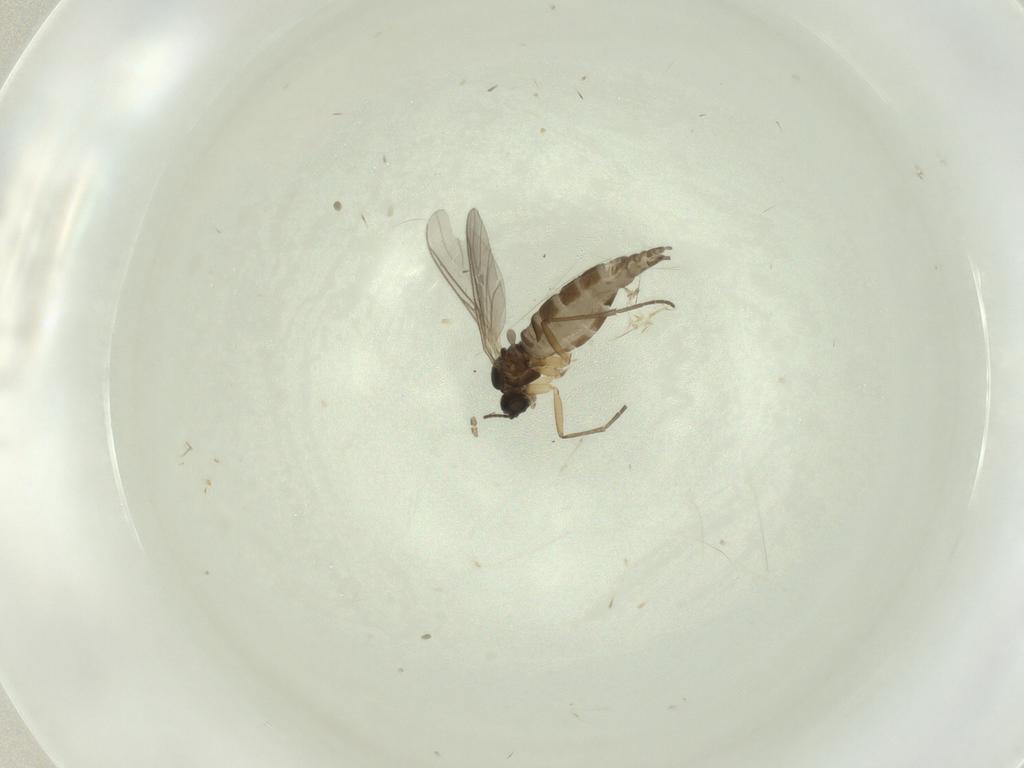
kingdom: Animalia
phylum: Arthropoda
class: Insecta
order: Diptera
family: Sciaridae
